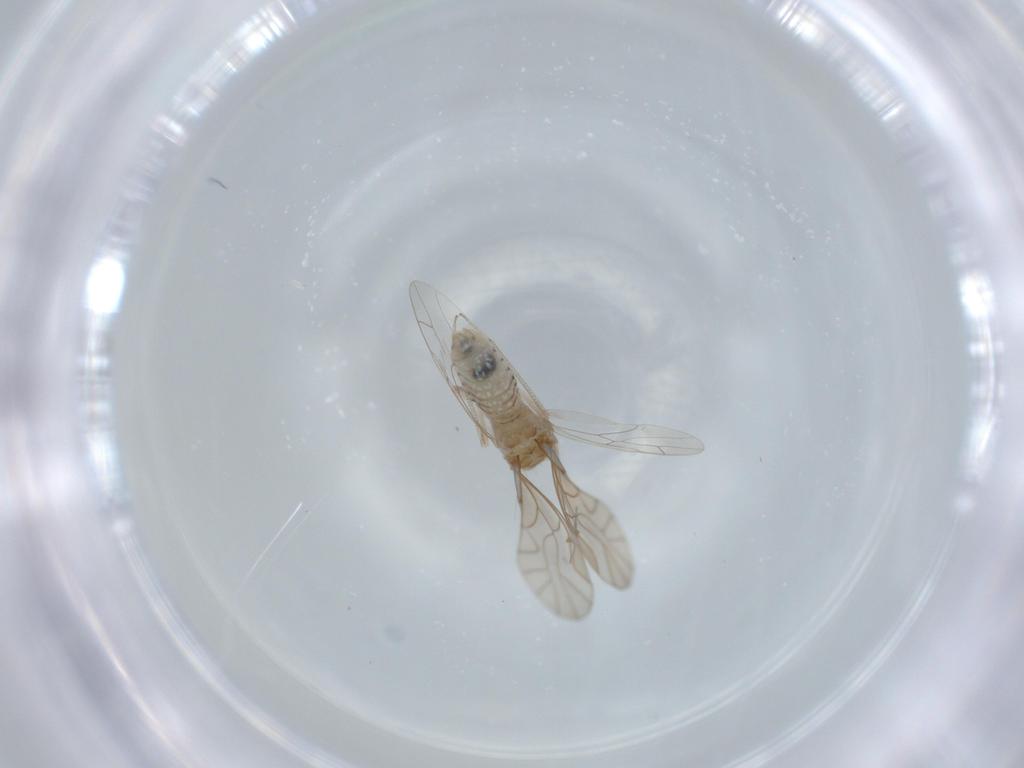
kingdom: Animalia
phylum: Arthropoda
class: Insecta
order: Psocodea
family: Lachesillidae
